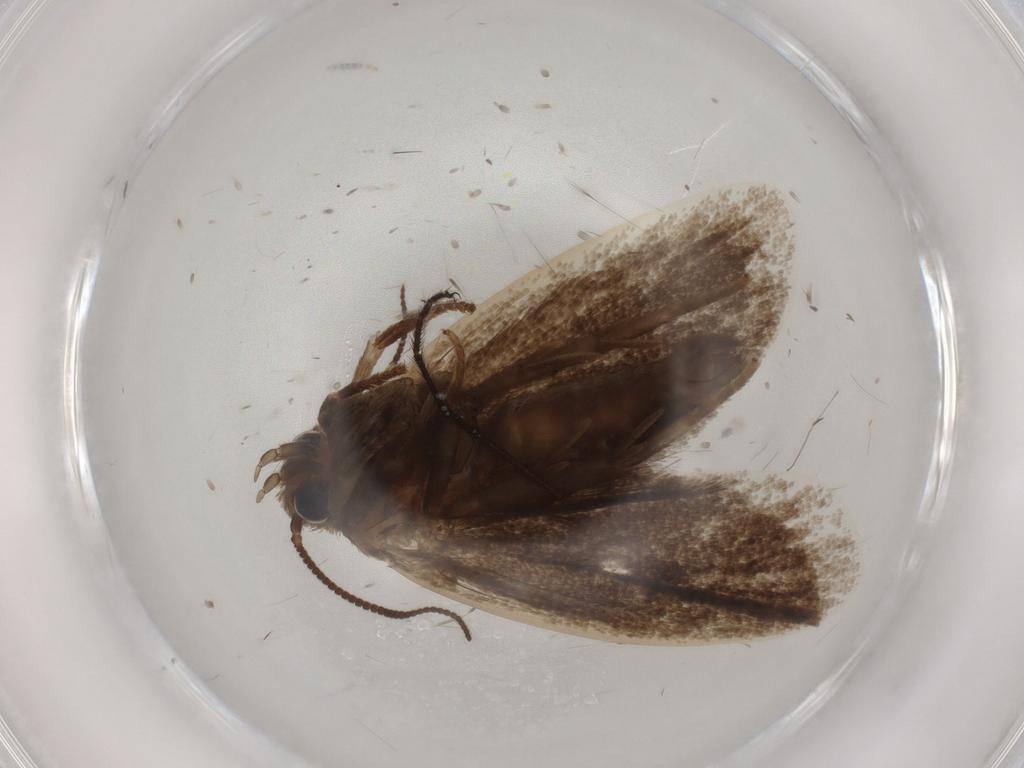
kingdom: Animalia
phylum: Arthropoda
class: Insecta
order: Lepidoptera
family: Tineidae
